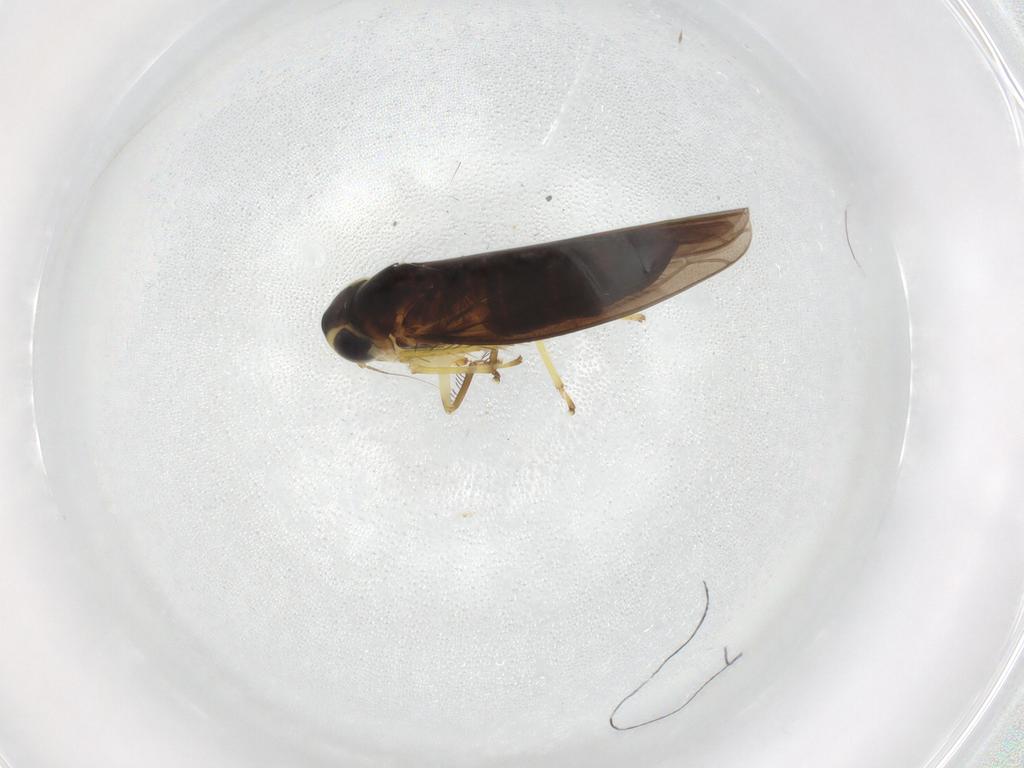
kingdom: Animalia
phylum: Arthropoda
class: Insecta
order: Hemiptera
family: Cicadellidae
